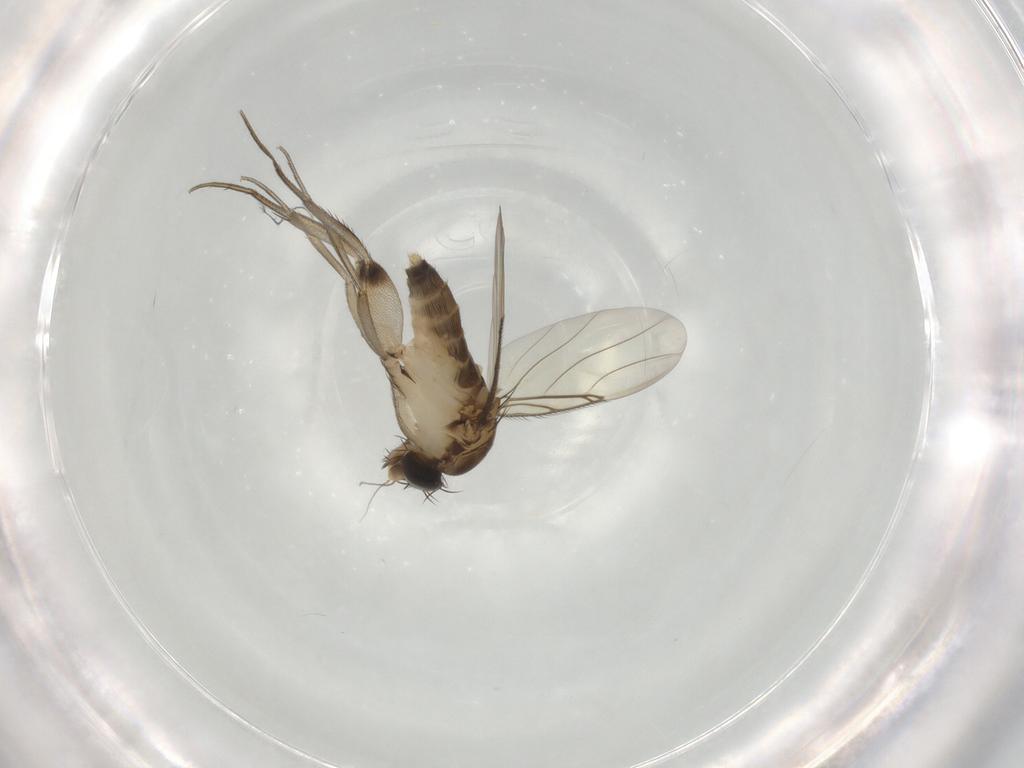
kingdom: Animalia
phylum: Arthropoda
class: Insecta
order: Diptera
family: Phoridae
